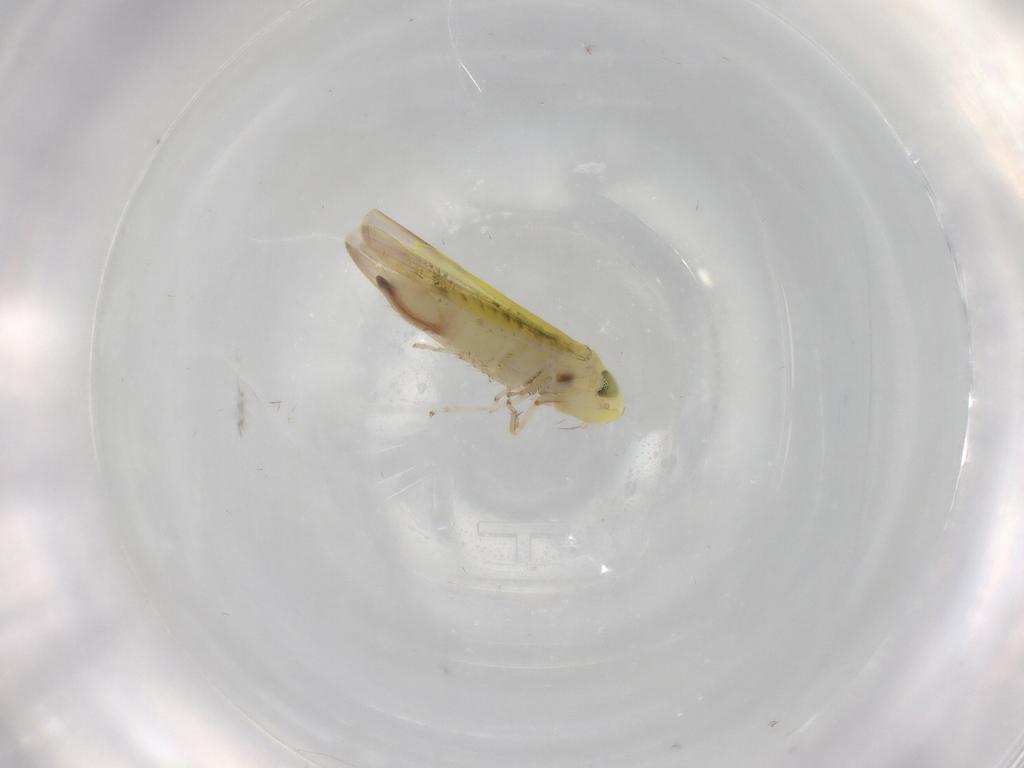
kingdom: Animalia
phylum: Arthropoda
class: Insecta
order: Hemiptera
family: Cicadellidae
